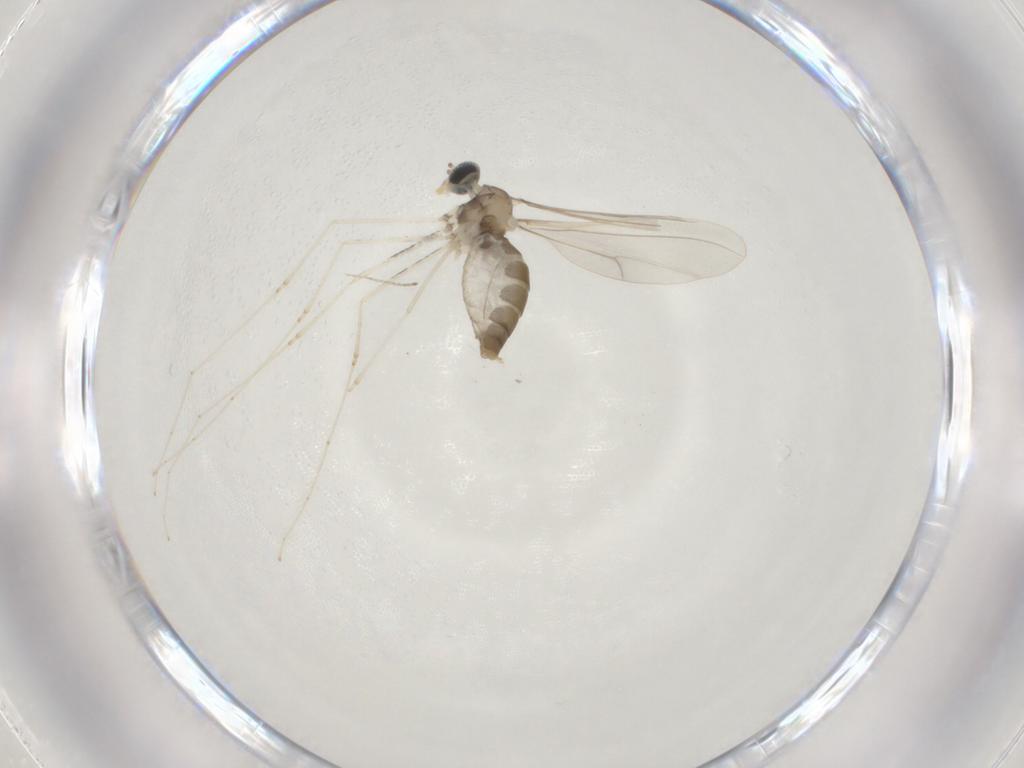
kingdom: Animalia
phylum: Arthropoda
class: Insecta
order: Diptera
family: Cecidomyiidae
